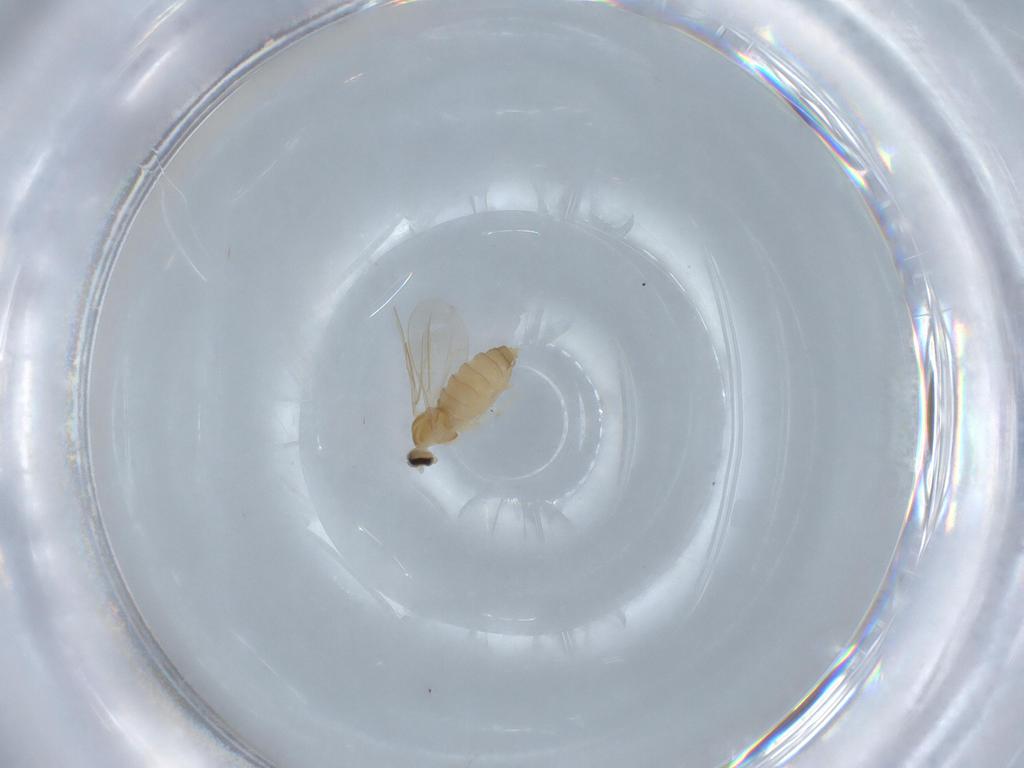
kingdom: Animalia
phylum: Arthropoda
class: Insecta
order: Diptera
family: Cecidomyiidae
